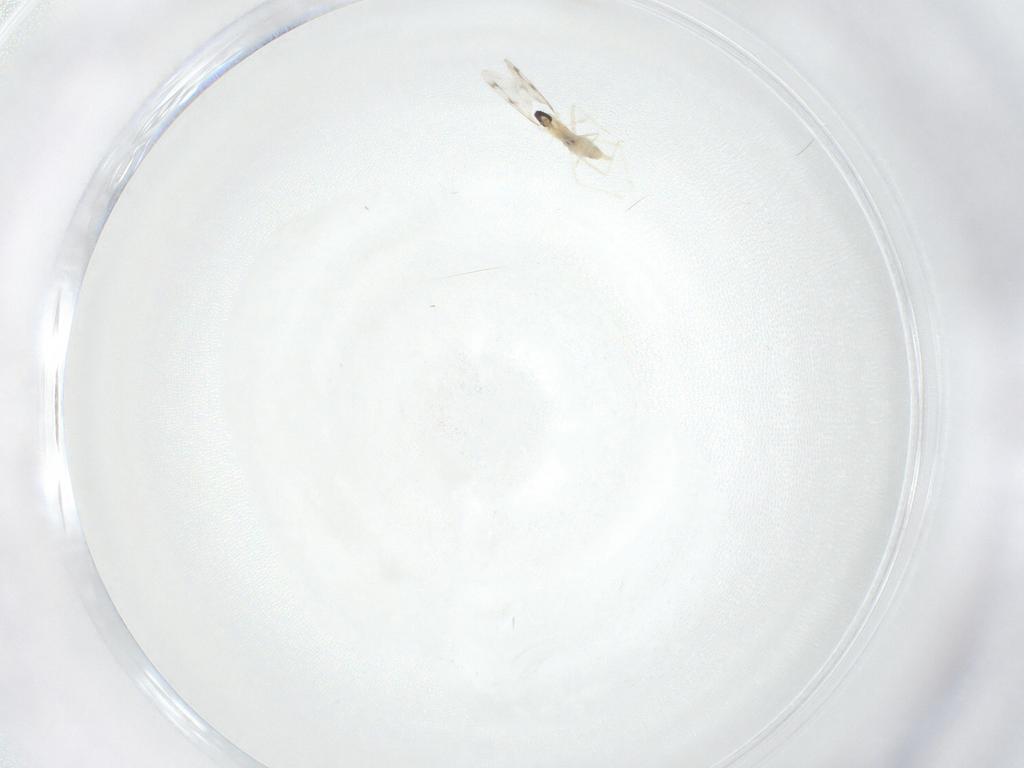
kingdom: Animalia
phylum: Arthropoda
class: Insecta
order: Diptera
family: Cecidomyiidae
